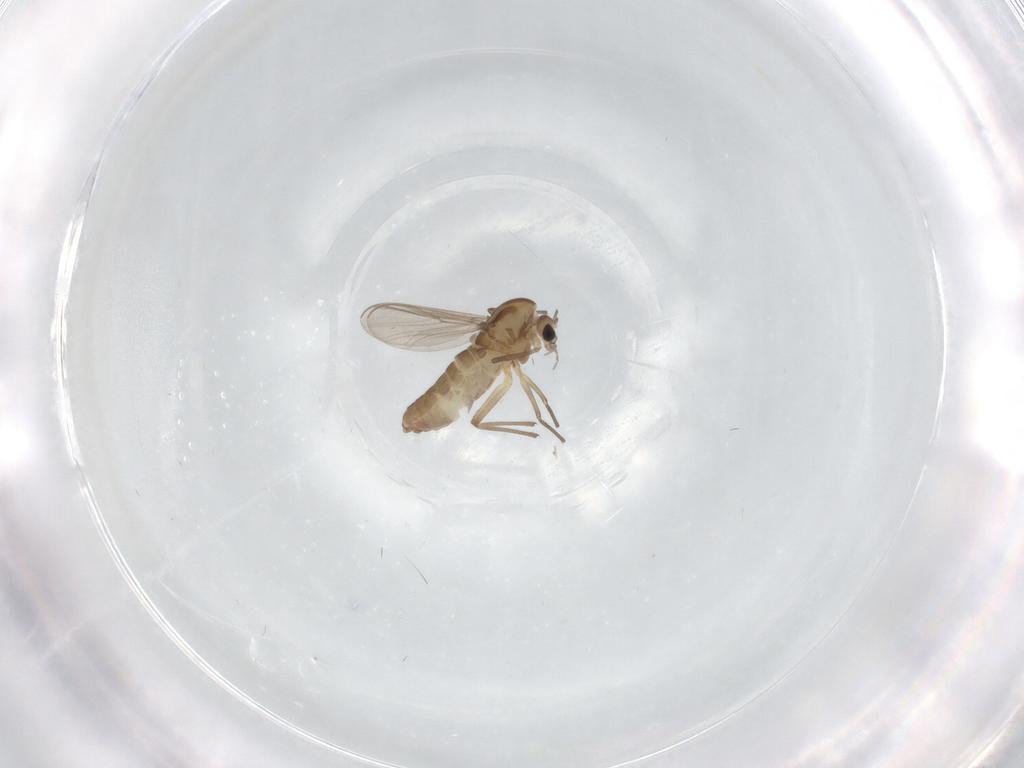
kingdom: Animalia
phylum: Arthropoda
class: Insecta
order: Diptera
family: Chironomidae
